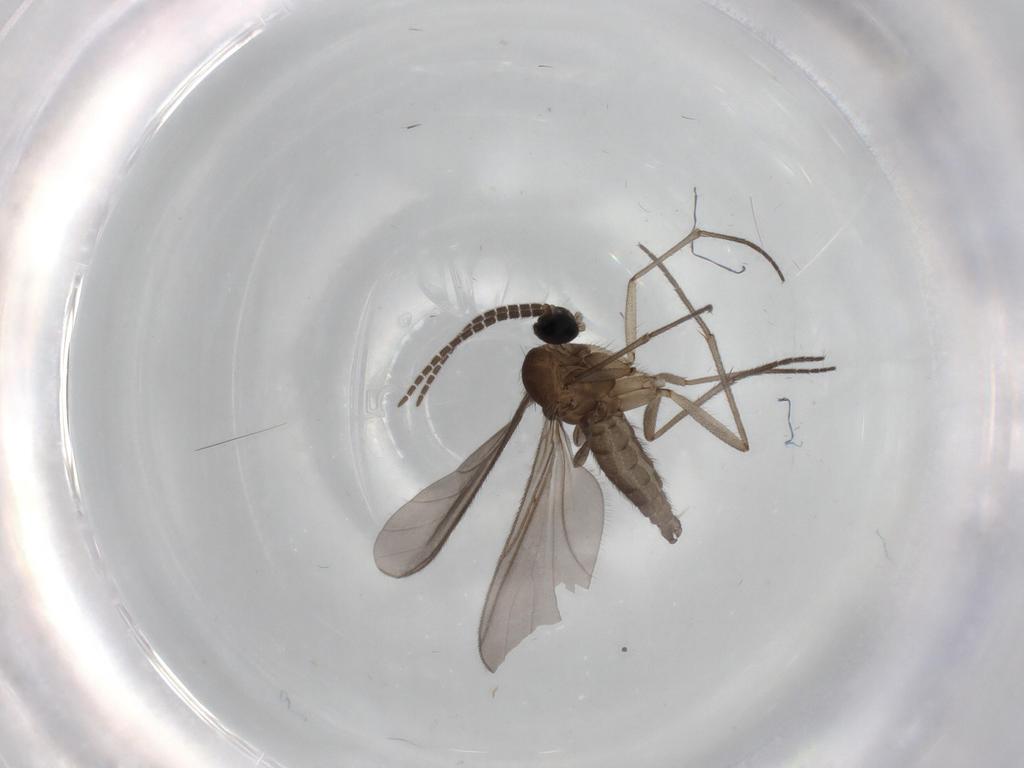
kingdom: Animalia
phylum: Arthropoda
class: Insecta
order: Diptera
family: Sciaridae
